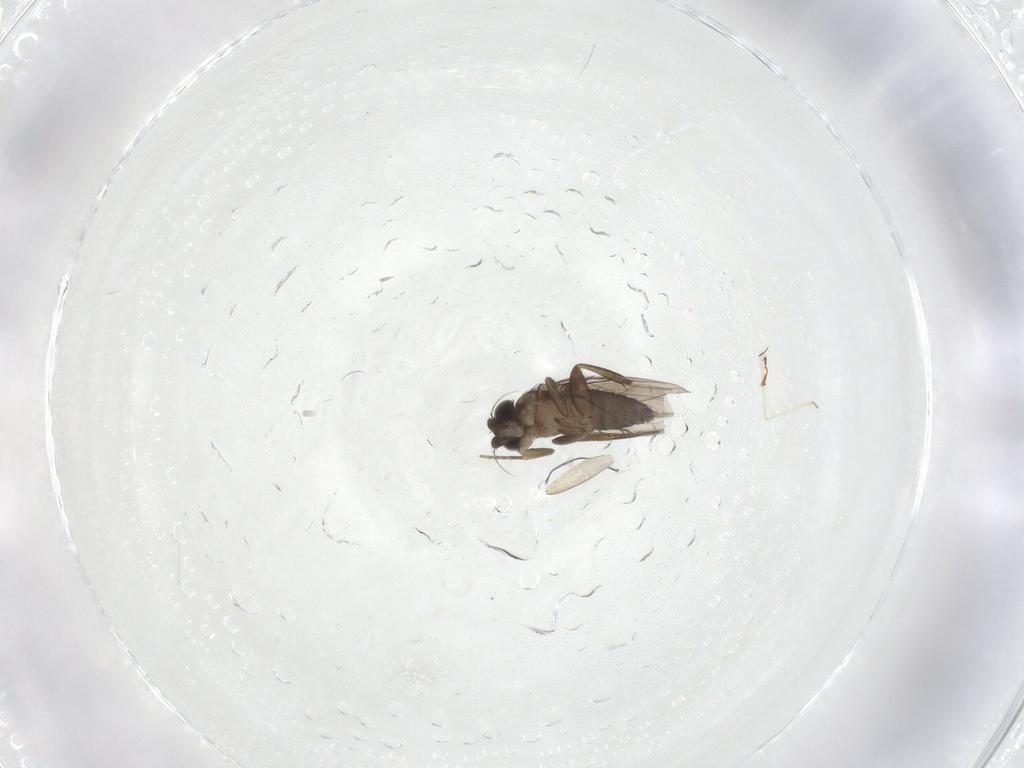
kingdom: Animalia
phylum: Arthropoda
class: Insecta
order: Diptera
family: Phoridae
